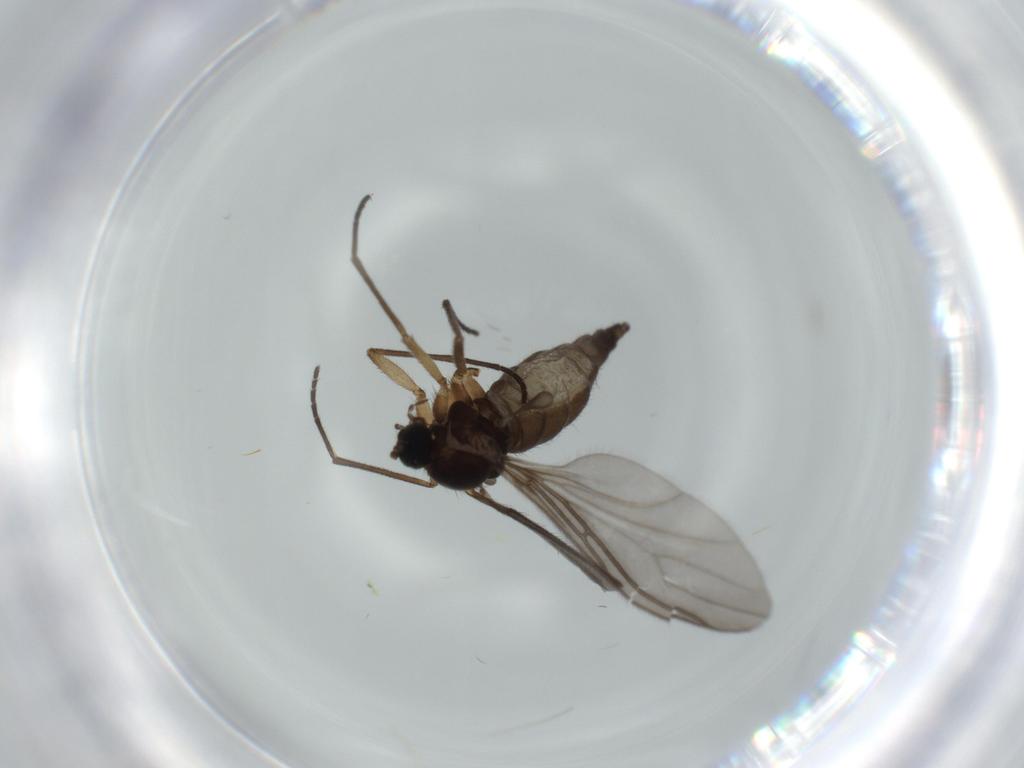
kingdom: Animalia
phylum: Arthropoda
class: Insecta
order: Diptera
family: Sciaridae
